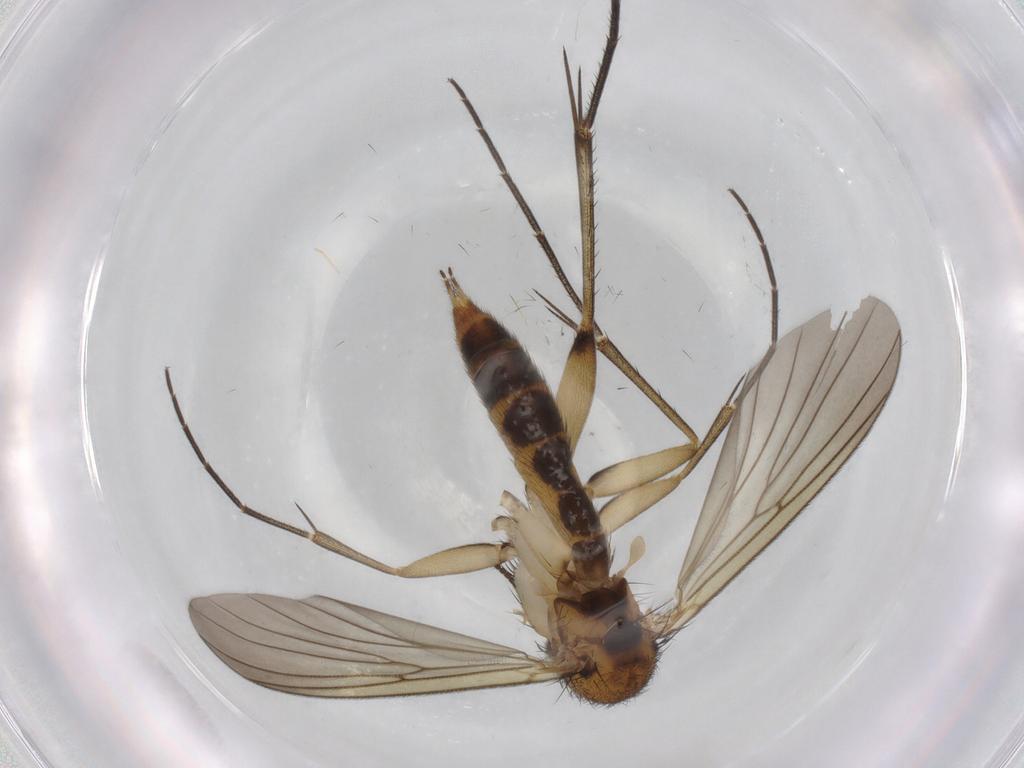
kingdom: Animalia
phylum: Arthropoda
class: Insecta
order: Diptera
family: Mycetophilidae
